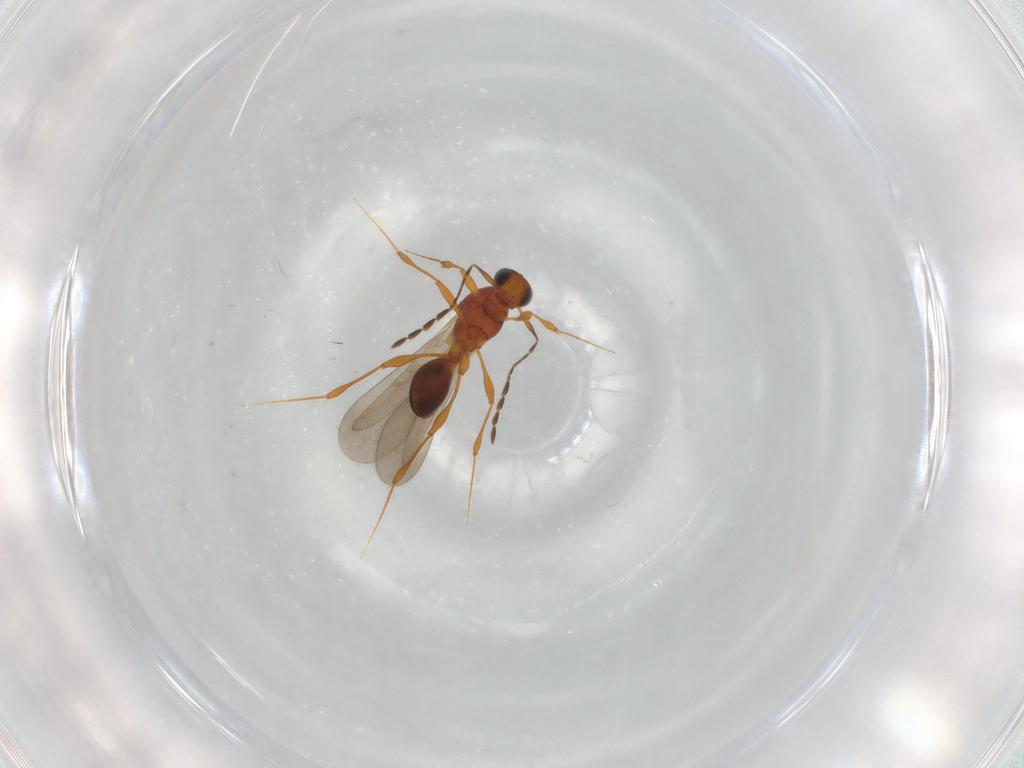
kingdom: Animalia
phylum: Arthropoda
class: Insecta
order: Hymenoptera
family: Platygastridae
